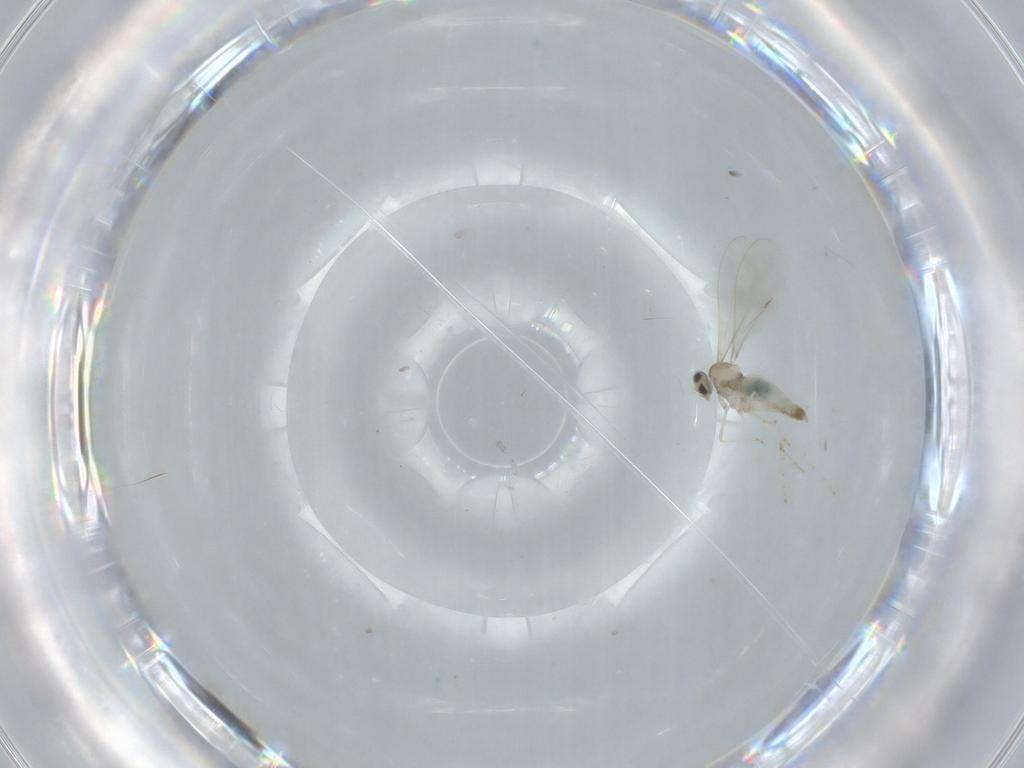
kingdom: Animalia
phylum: Arthropoda
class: Insecta
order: Diptera
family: Cecidomyiidae
